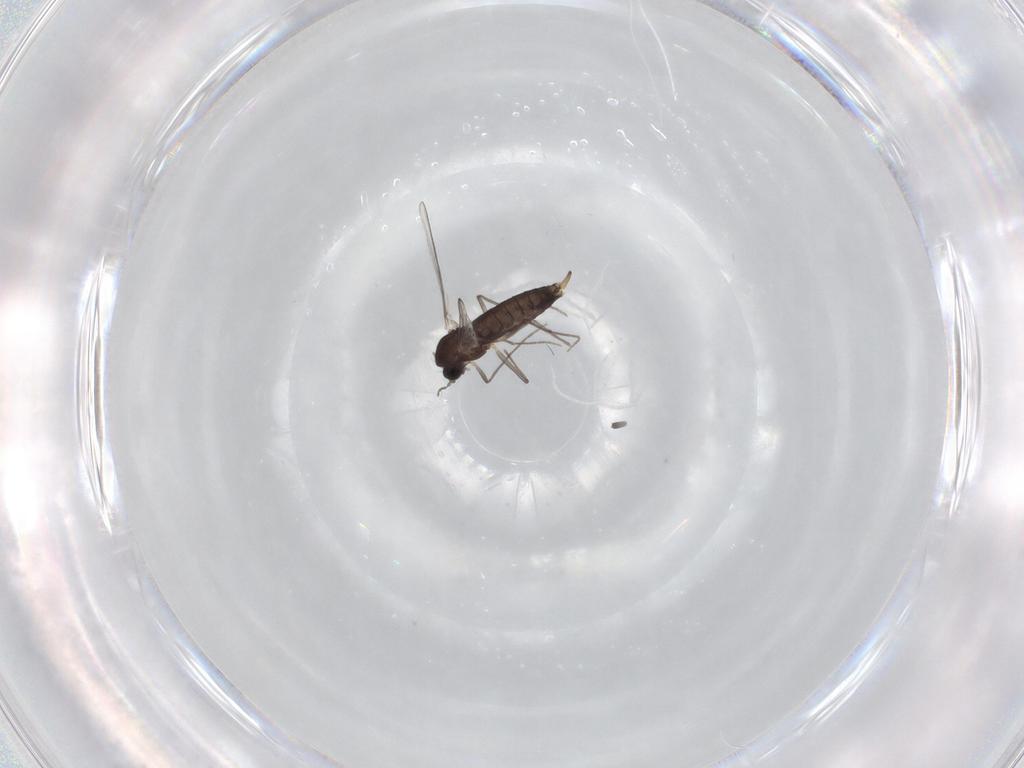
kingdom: Animalia
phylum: Arthropoda
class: Insecta
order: Diptera
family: Chironomidae
